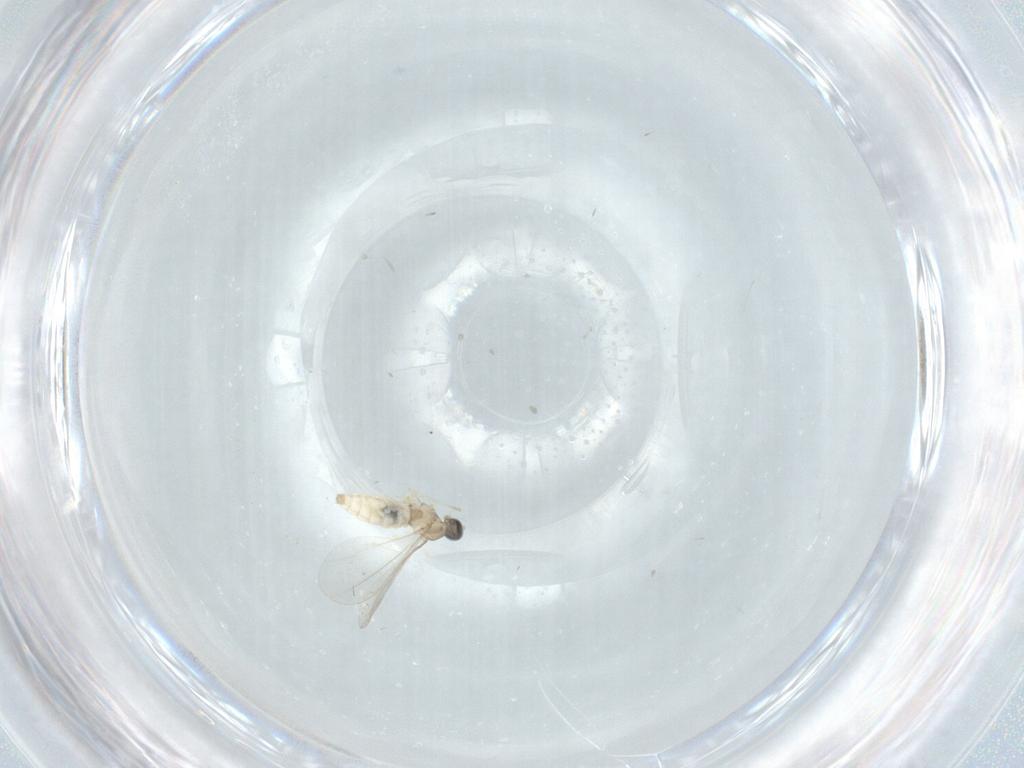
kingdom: Animalia
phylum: Arthropoda
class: Insecta
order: Diptera
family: Cecidomyiidae
